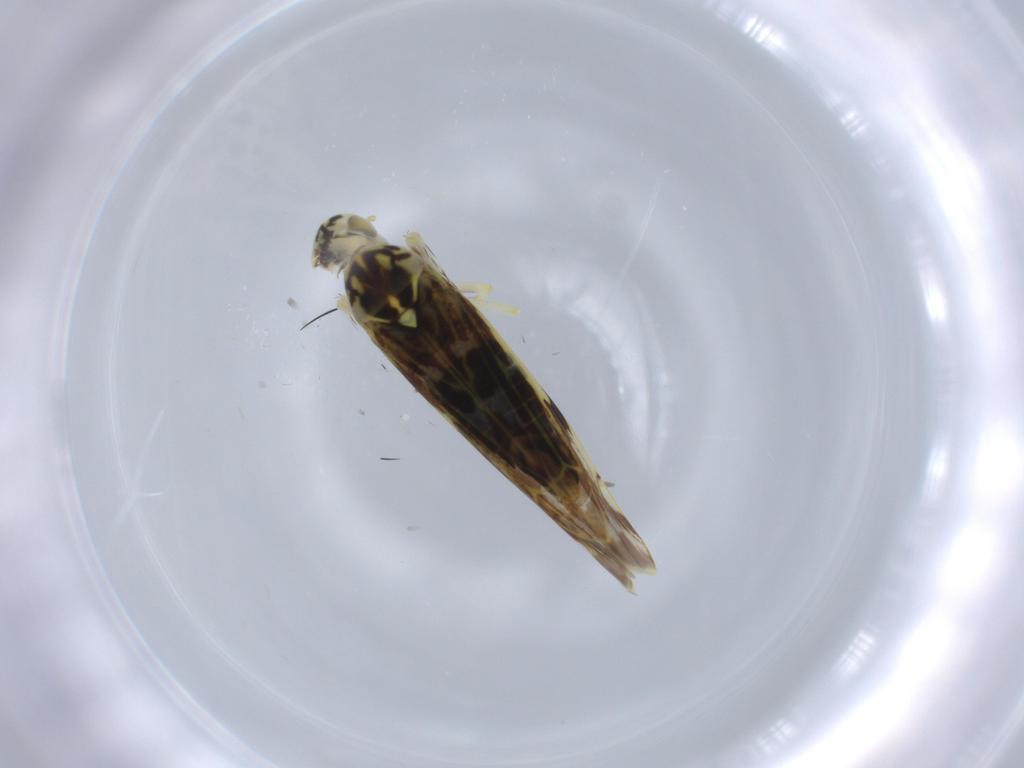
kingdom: Animalia
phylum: Arthropoda
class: Insecta
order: Hemiptera
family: Cicadellidae
